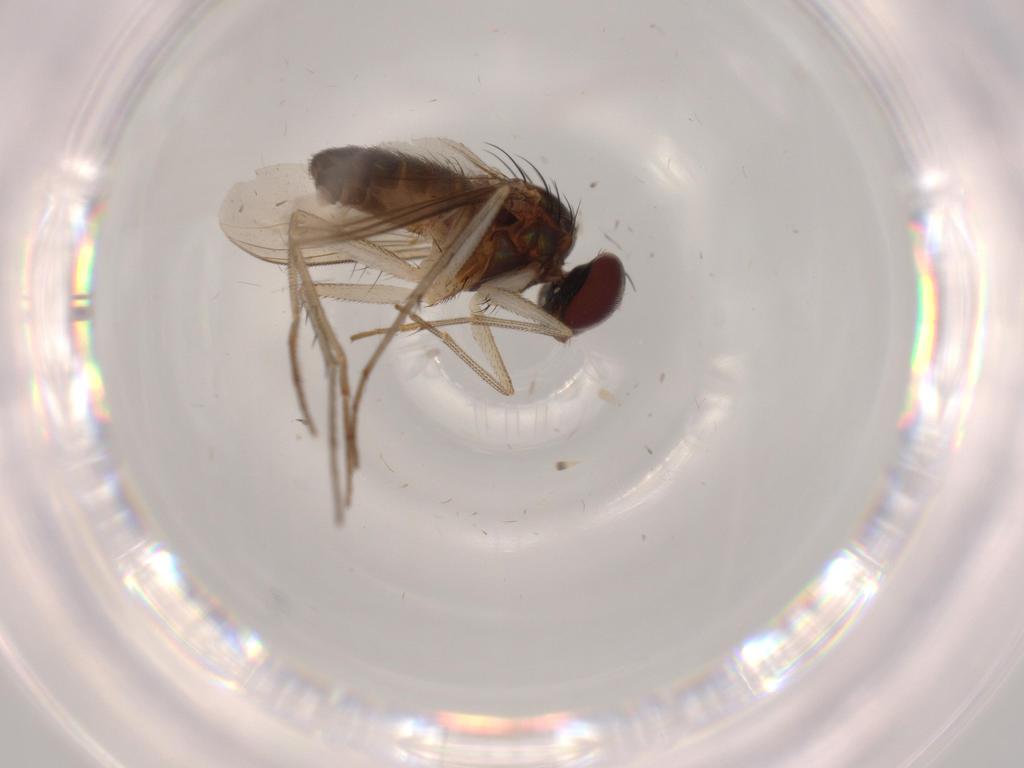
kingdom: Animalia
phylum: Arthropoda
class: Insecta
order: Diptera
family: Dolichopodidae
